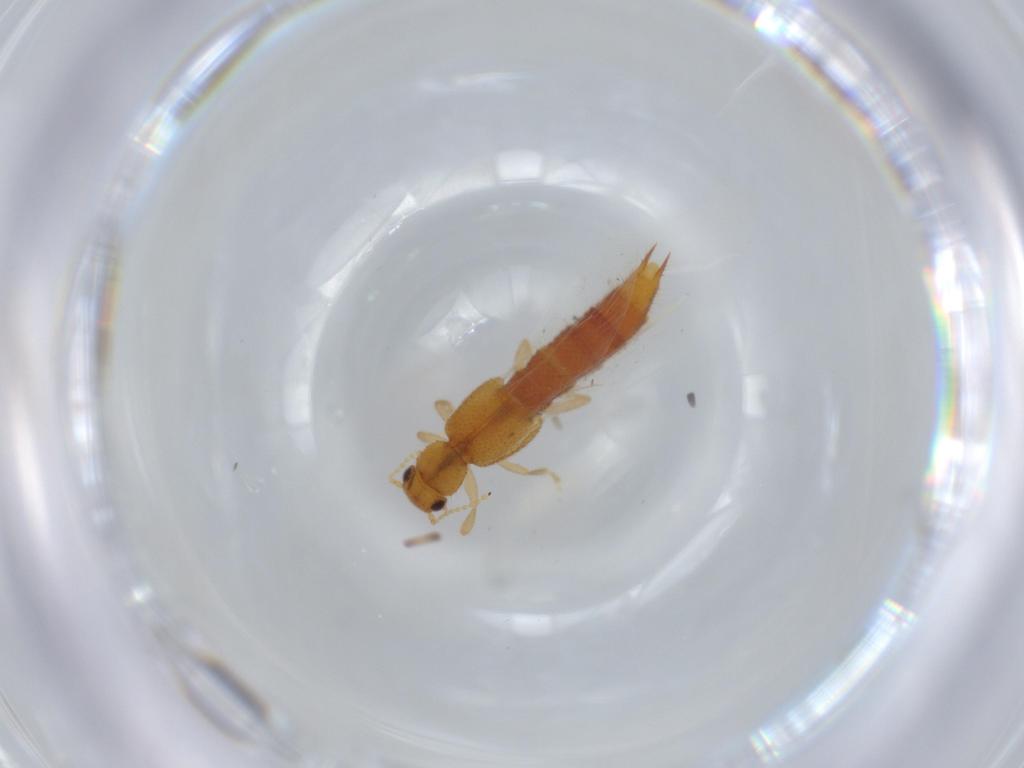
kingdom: Animalia
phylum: Arthropoda
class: Insecta
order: Coleoptera
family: Staphylinidae
